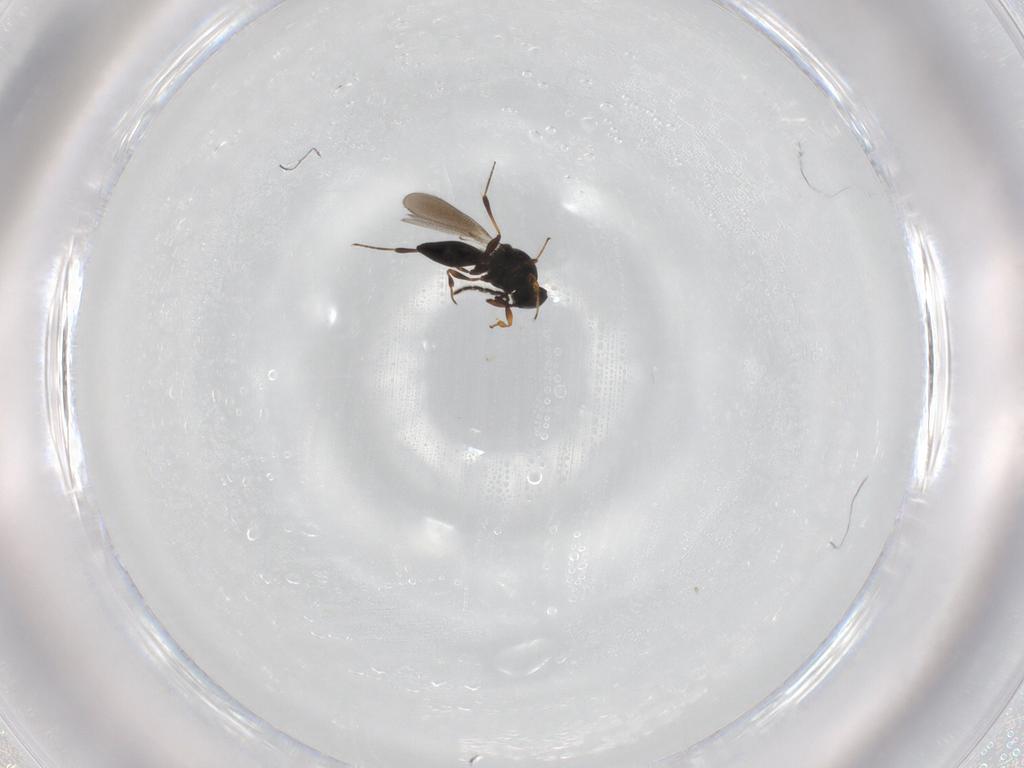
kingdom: Animalia
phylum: Arthropoda
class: Insecta
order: Hymenoptera
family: Platygastridae
